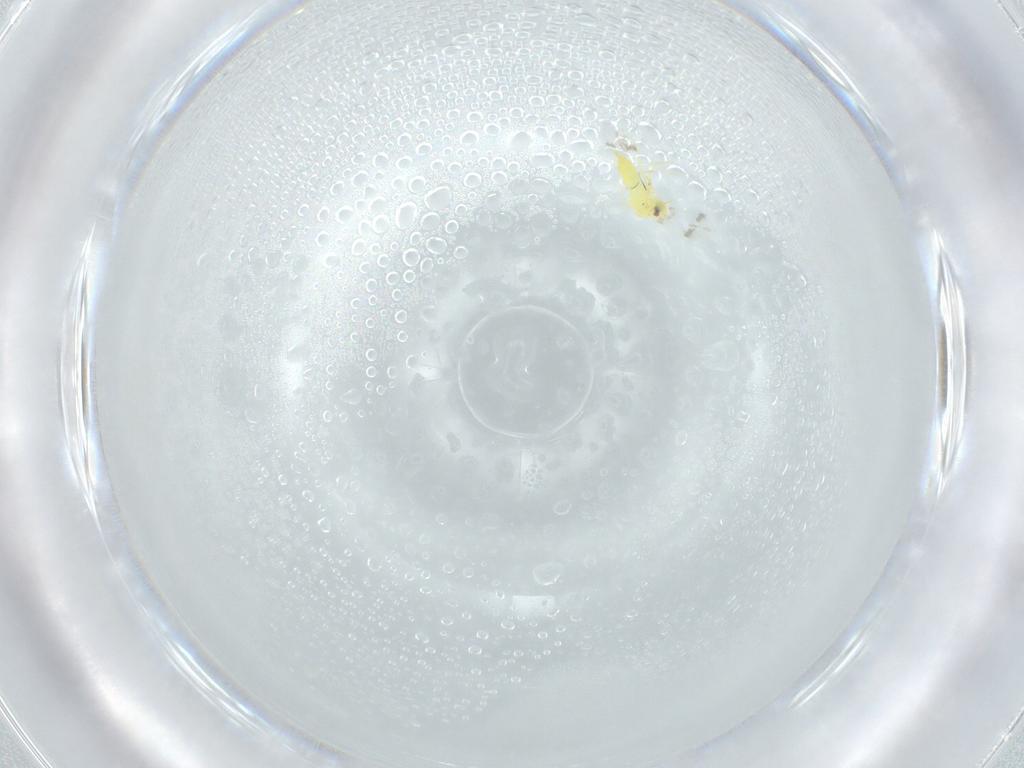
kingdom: Animalia
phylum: Arthropoda
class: Insecta
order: Hemiptera
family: Aleyrodidae
